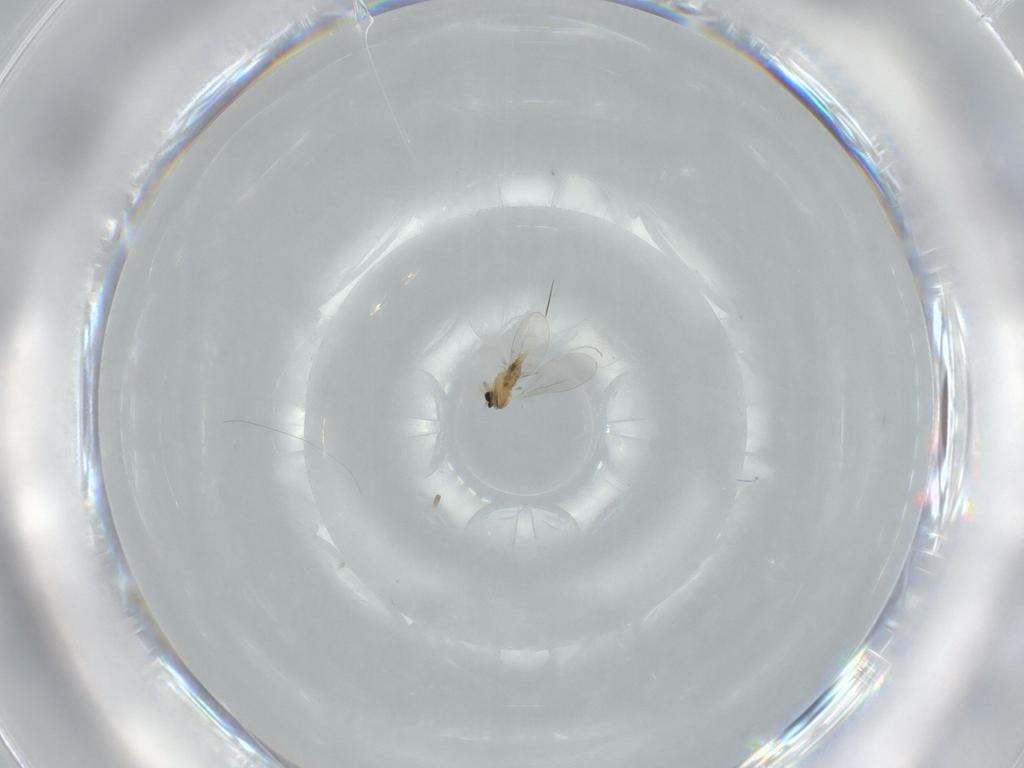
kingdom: Animalia
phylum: Arthropoda
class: Insecta
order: Diptera
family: Cecidomyiidae
